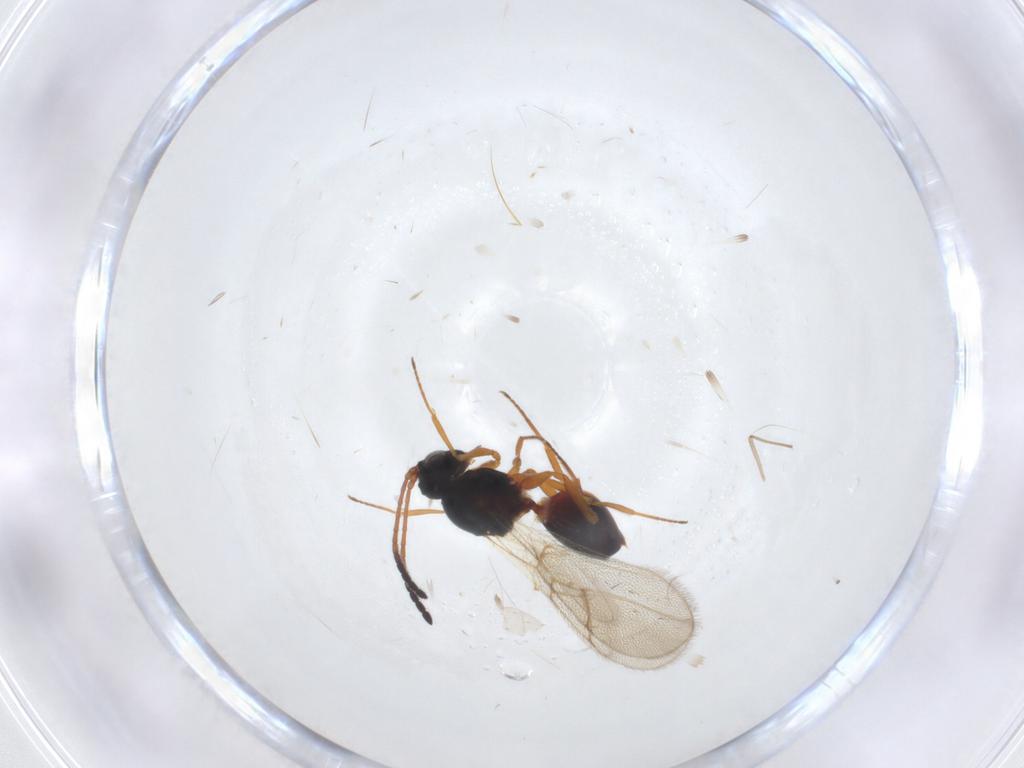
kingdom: Animalia
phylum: Arthropoda
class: Insecta
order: Hymenoptera
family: Figitidae
